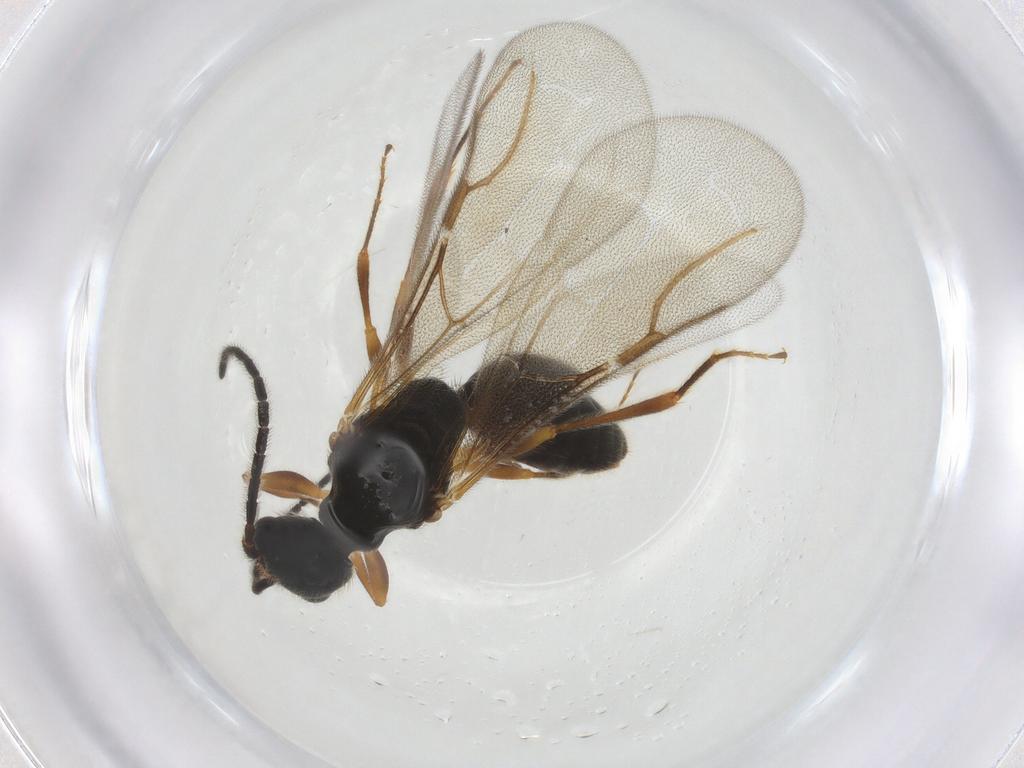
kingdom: Animalia
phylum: Arthropoda
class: Insecta
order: Hymenoptera
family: Bethylidae
